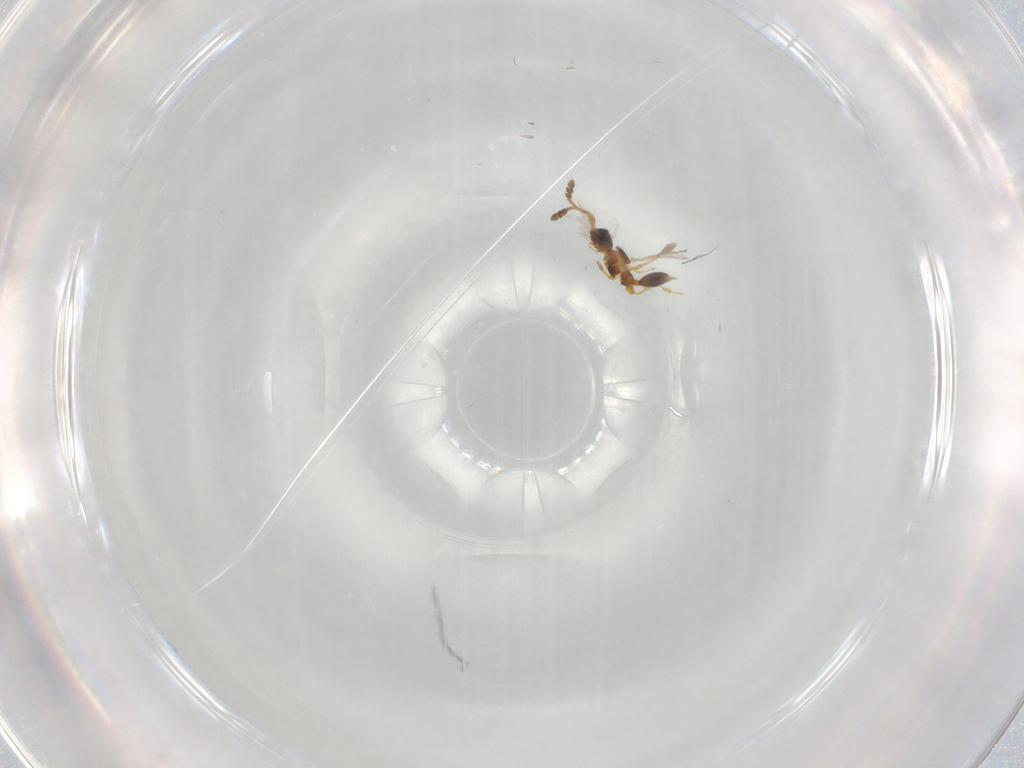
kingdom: Animalia
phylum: Arthropoda
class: Insecta
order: Hymenoptera
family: Diapriidae
